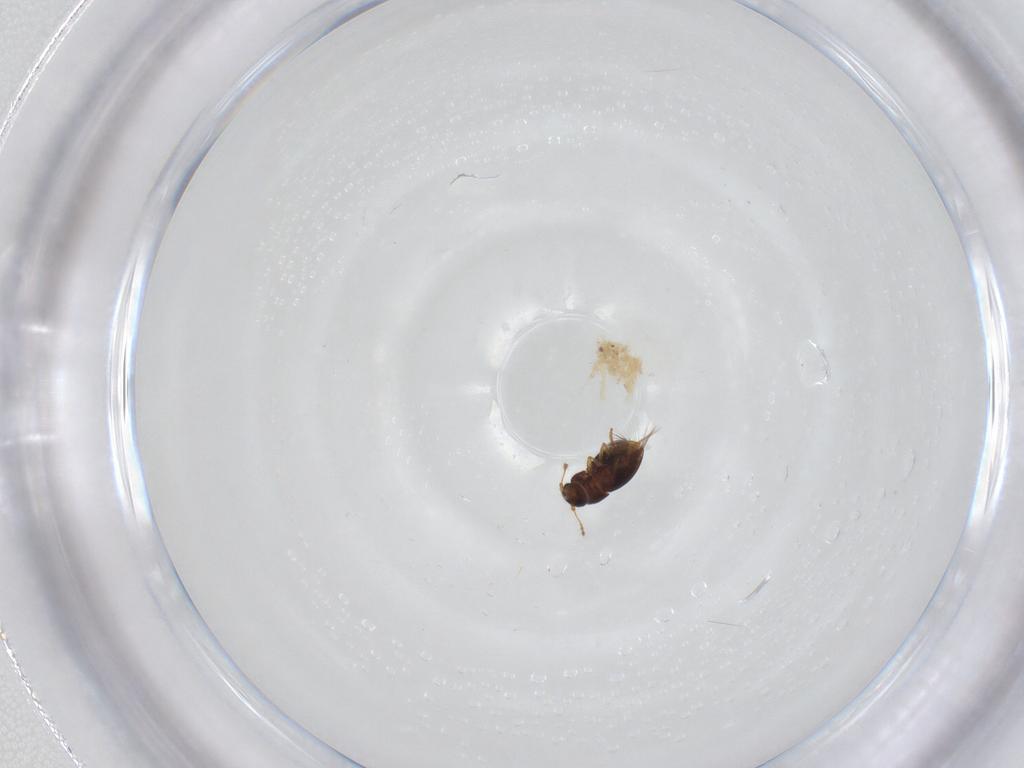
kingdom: Animalia
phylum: Arthropoda
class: Insecta
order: Coleoptera
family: Ptiliidae
